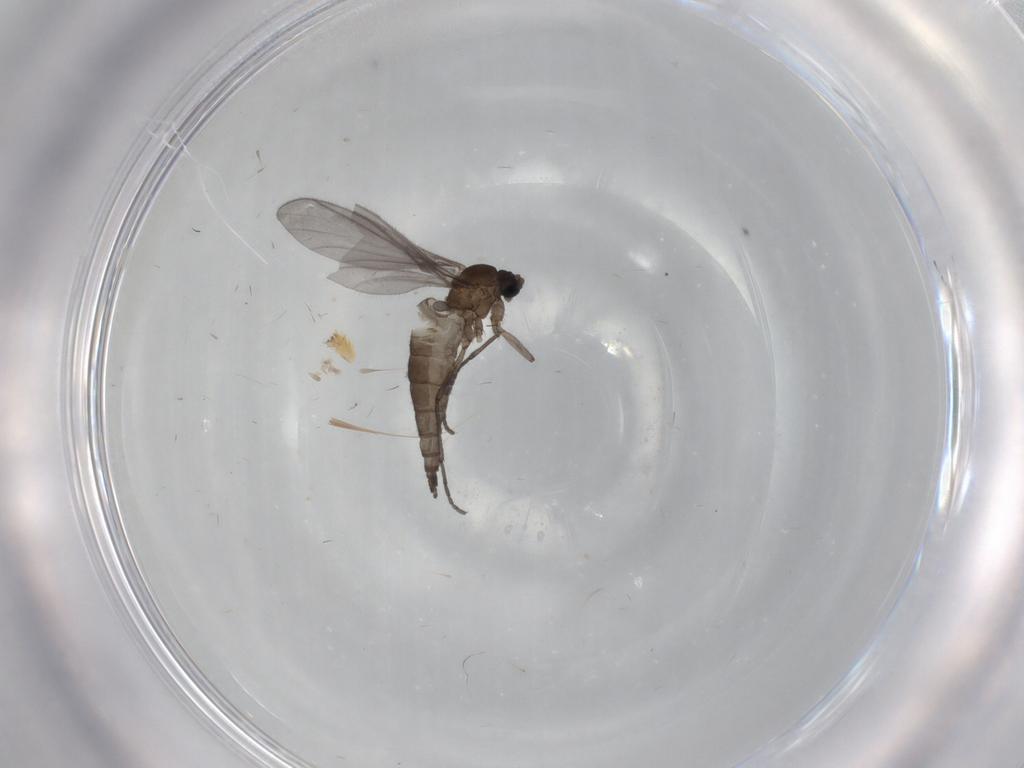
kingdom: Animalia
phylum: Arthropoda
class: Insecta
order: Diptera
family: Sciaridae
